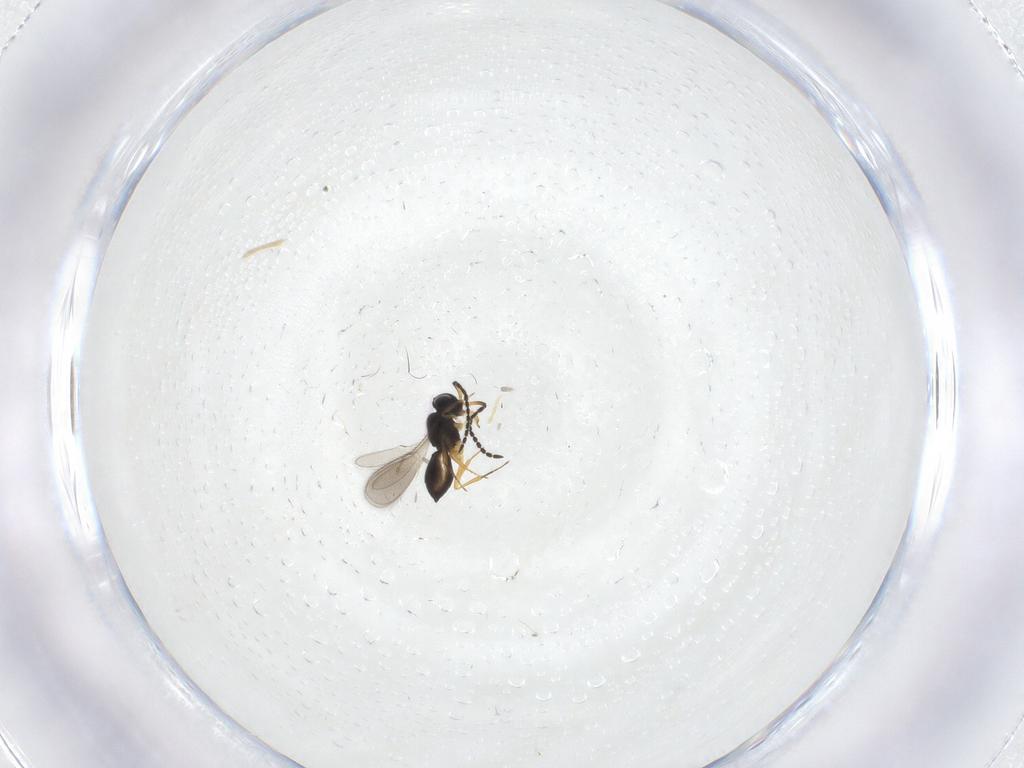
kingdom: Animalia
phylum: Arthropoda
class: Insecta
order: Hymenoptera
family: Scelionidae
